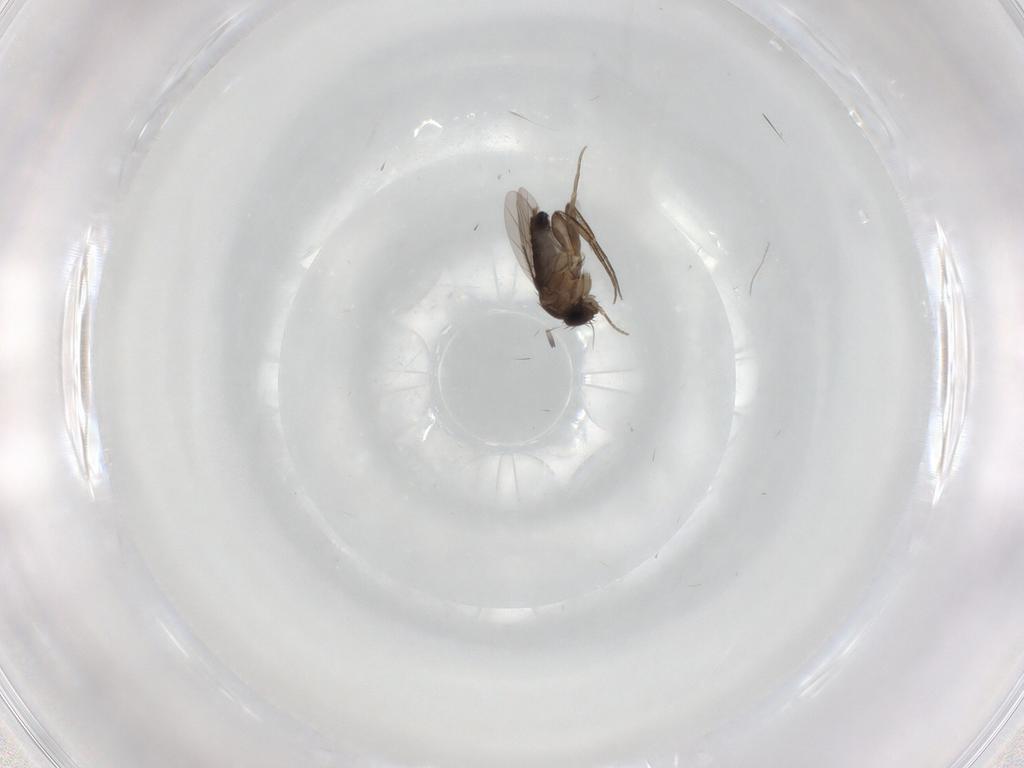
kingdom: Animalia
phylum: Arthropoda
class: Insecta
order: Diptera
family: Phoridae
